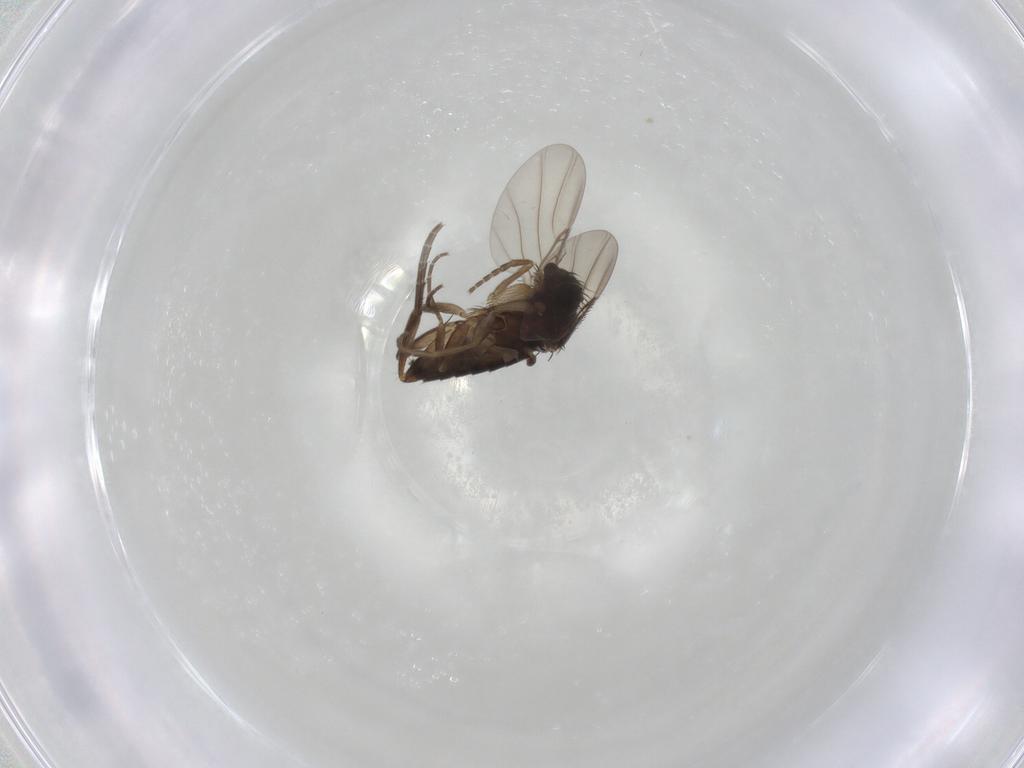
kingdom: Animalia
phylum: Arthropoda
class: Insecta
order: Diptera
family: Phoridae
